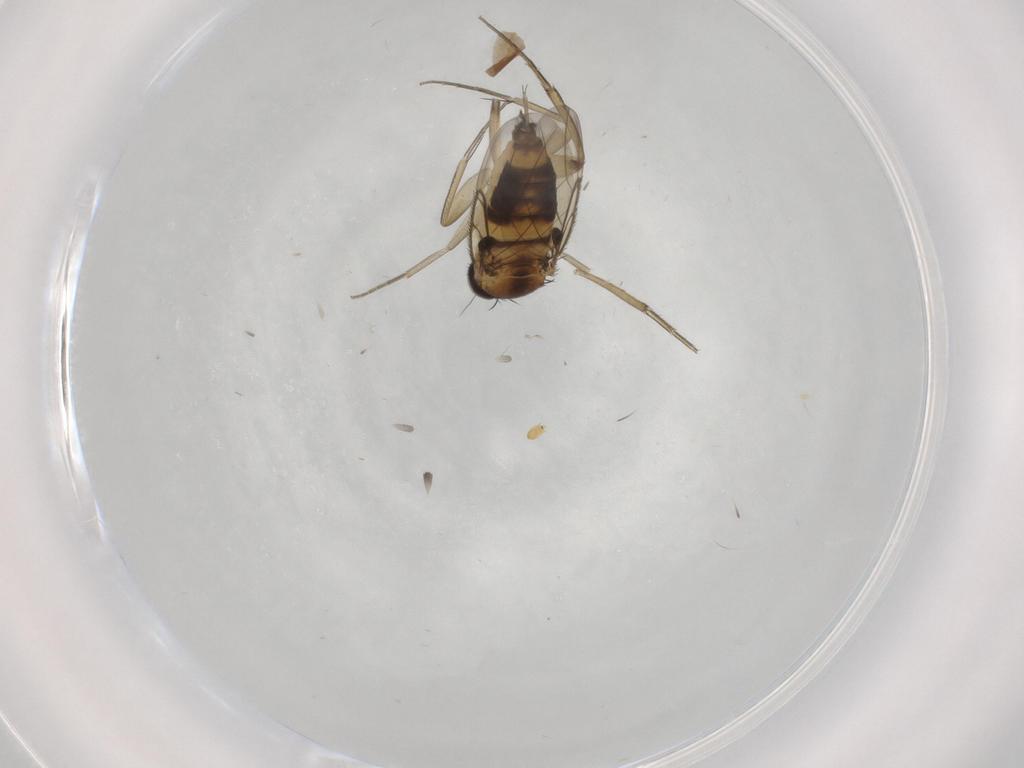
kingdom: Animalia
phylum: Arthropoda
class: Insecta
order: Diptera
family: Phoridae
